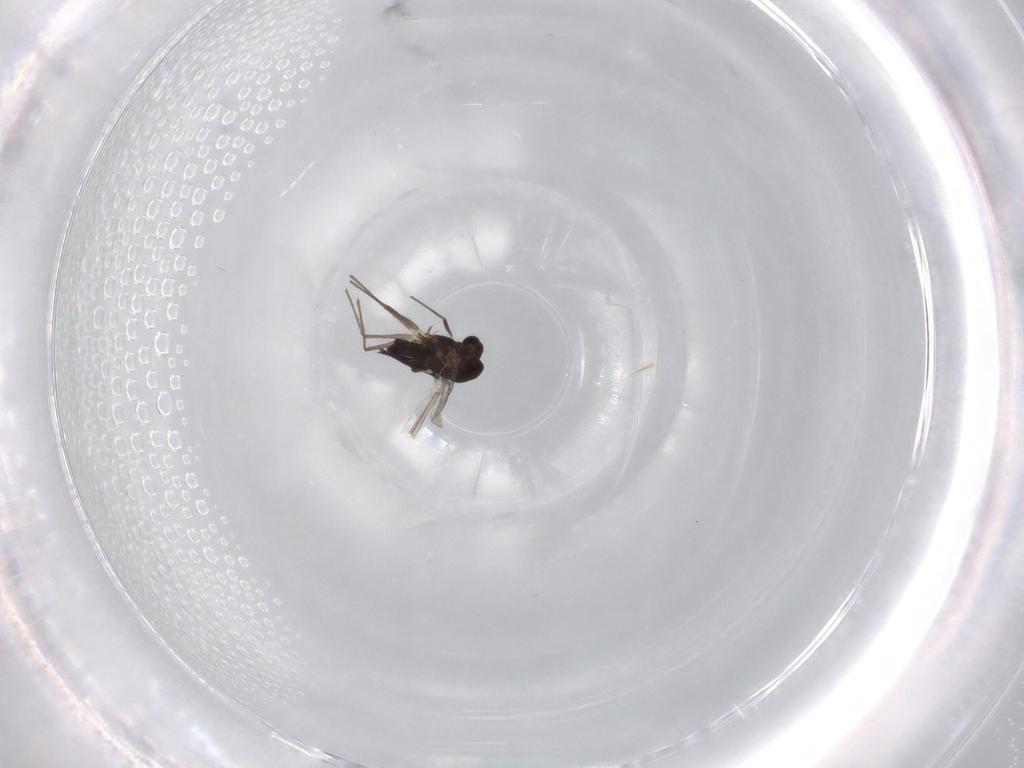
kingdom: Animalia
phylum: Arthropoda
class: Insecta
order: Diptera
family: Chironomidae
